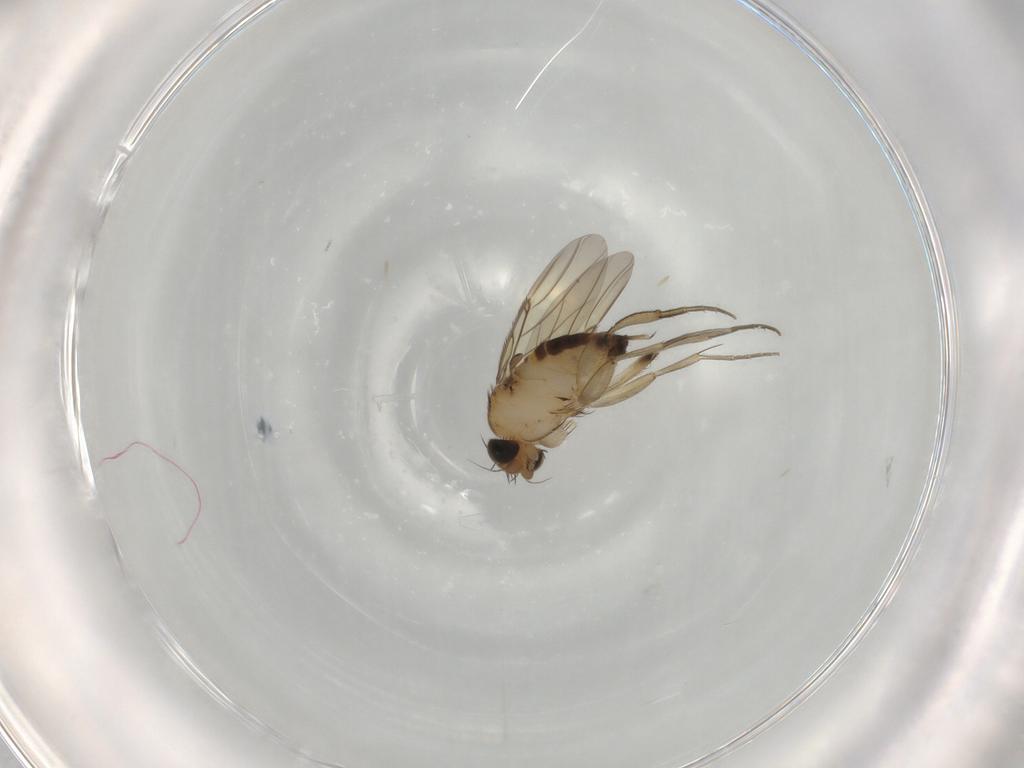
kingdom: Animalia
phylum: Arthropoda
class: Insecta
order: Diptera
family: Phoridae
